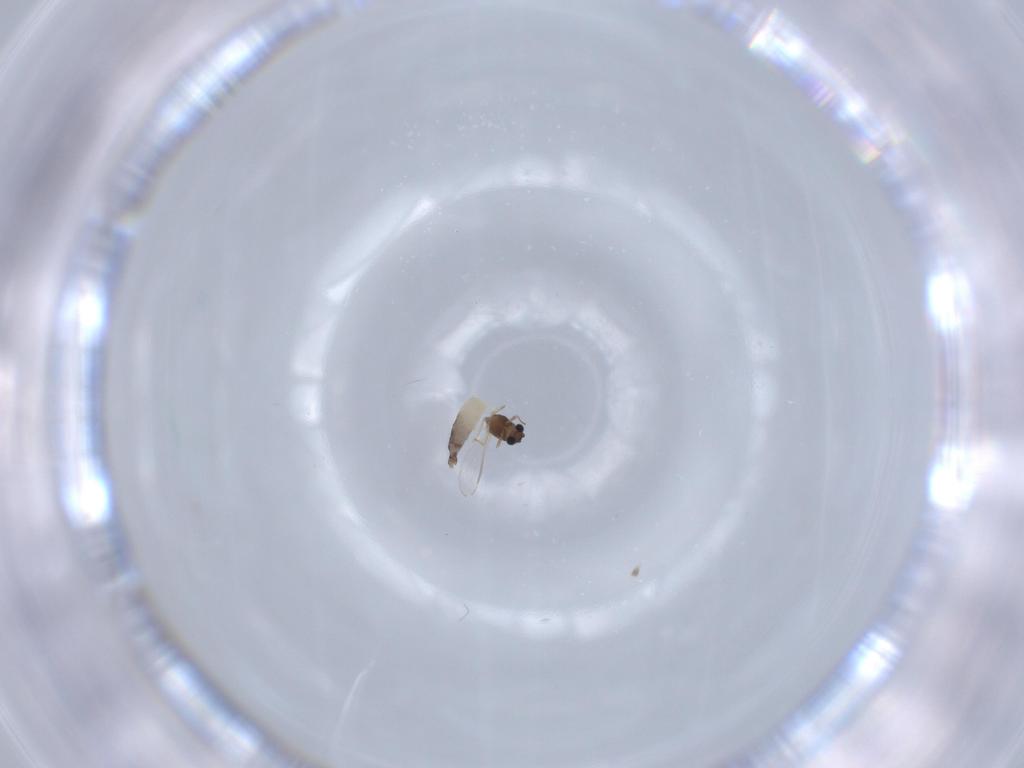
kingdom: Animalia
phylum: Arthropoda
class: Insecta
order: Diptera
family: Chironomidae
